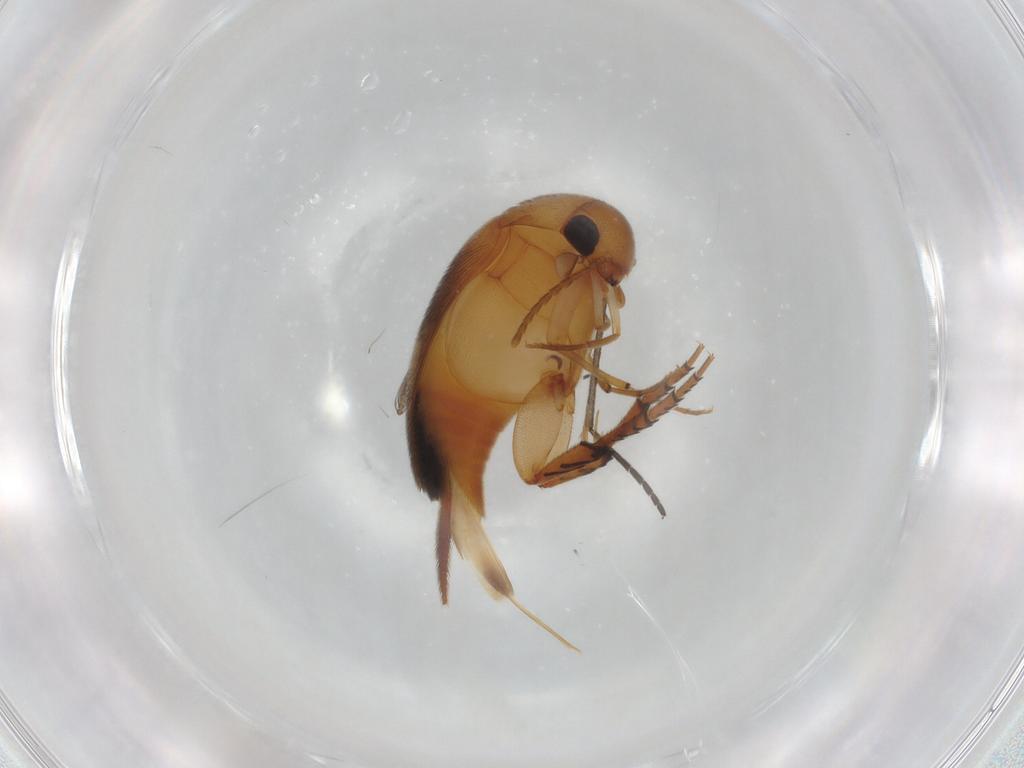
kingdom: Animalia
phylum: Arthropoda
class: Insecta
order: Coleoptera
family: Mordellidae
